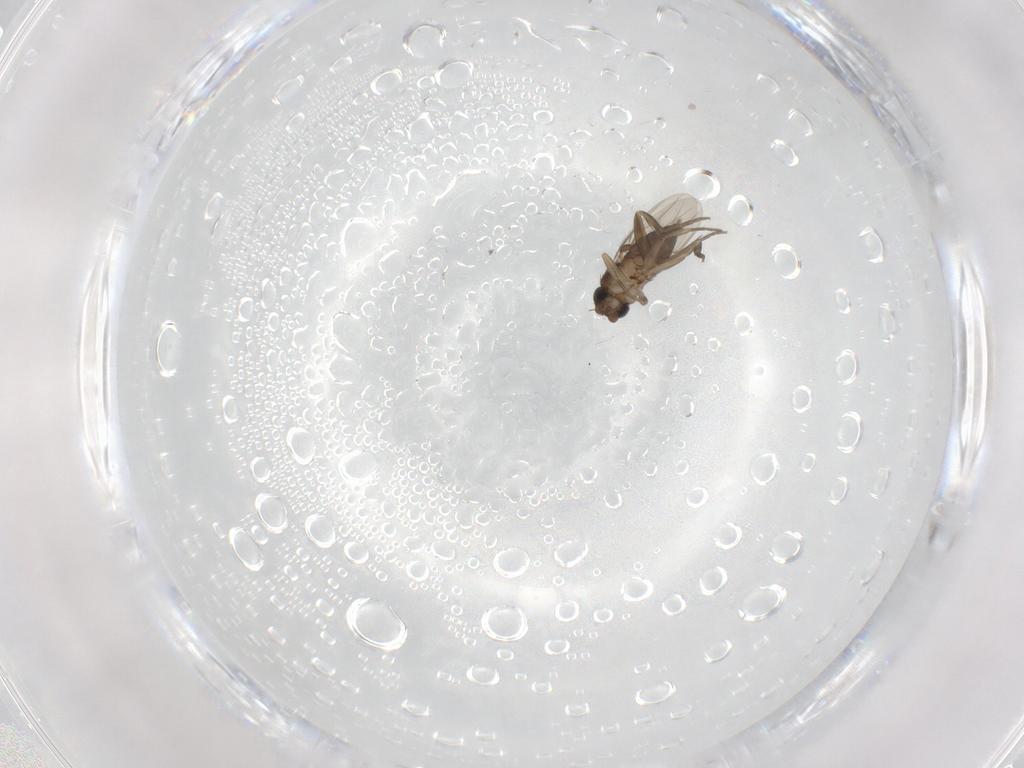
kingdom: Animalia
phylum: Arthropoda
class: Insecta
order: Diptera
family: Phoridae
